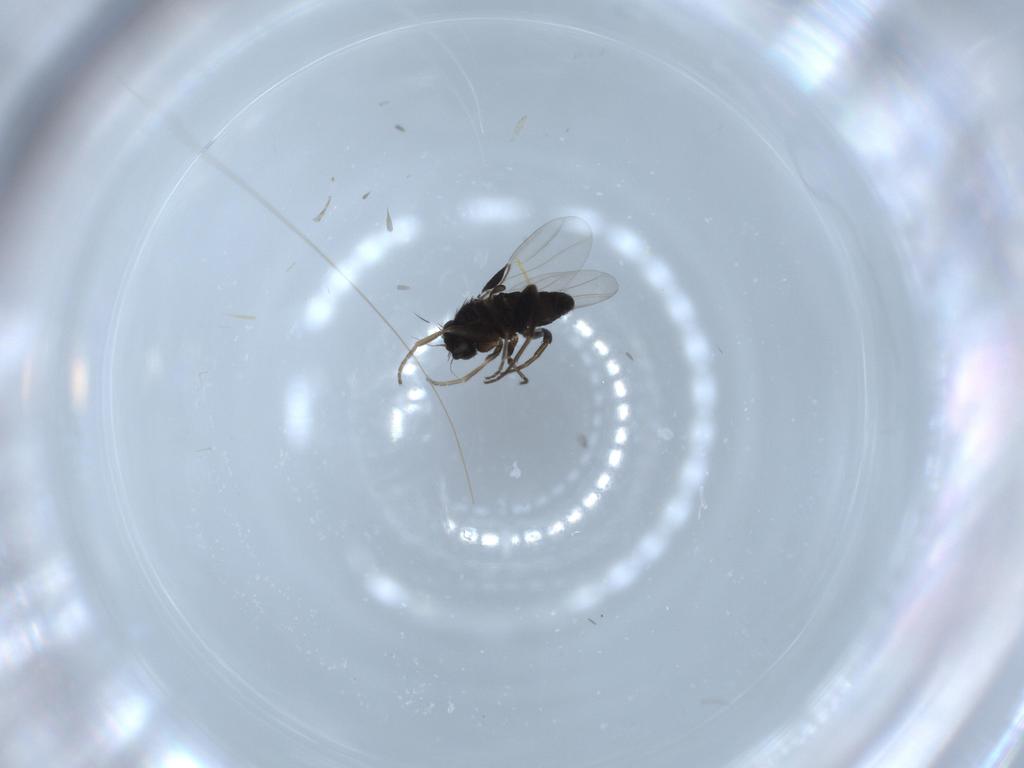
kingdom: Animalia
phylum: Arthropoda
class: Insecta
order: Diptera
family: Phoridae
